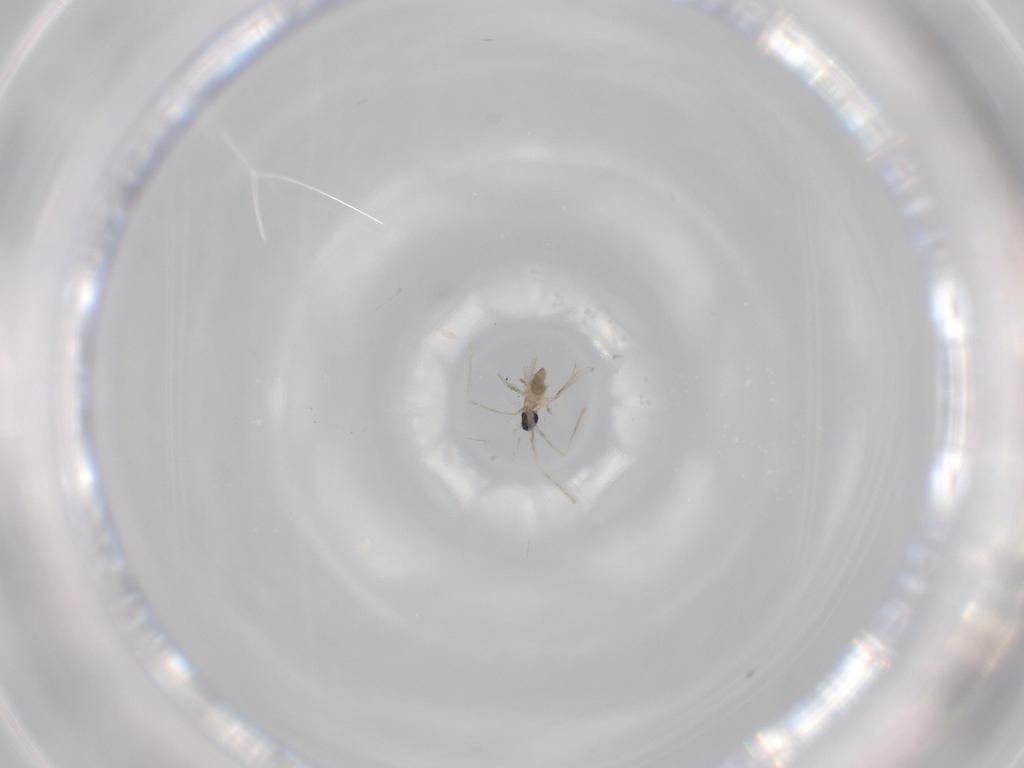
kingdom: Animalia
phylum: Arthropoda
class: Insecta
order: Diptera
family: Cecidomyiidae
